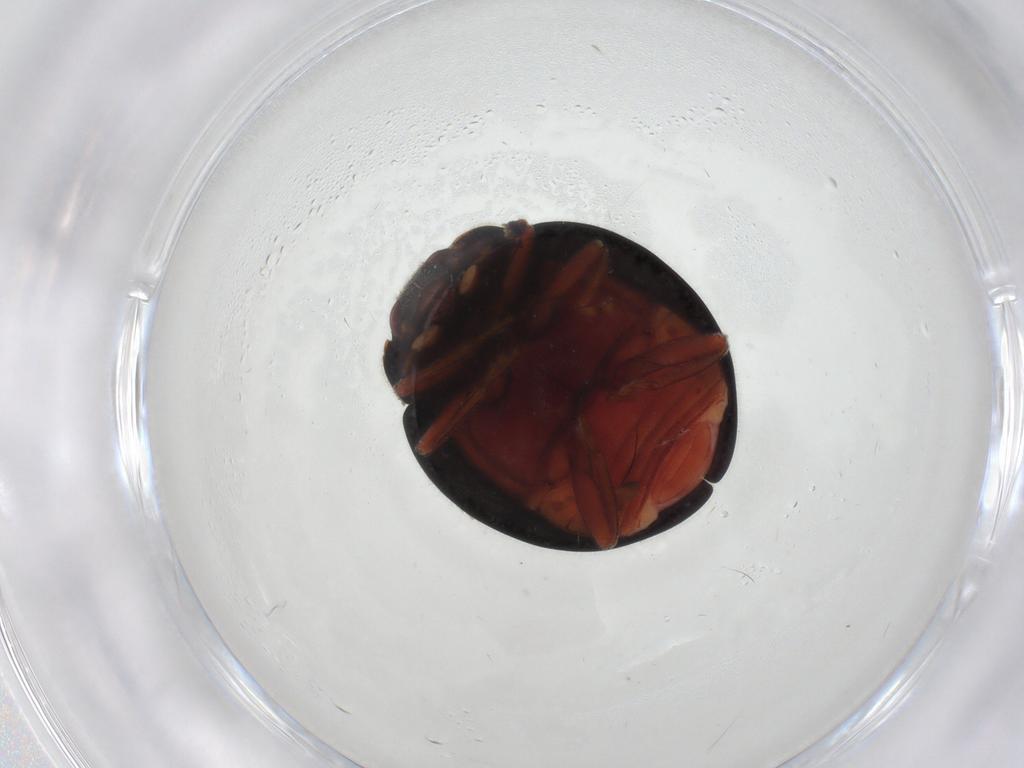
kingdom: Animalia
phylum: Arthropoda
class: Insecta
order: Coleoptera
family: Coccinellidae
